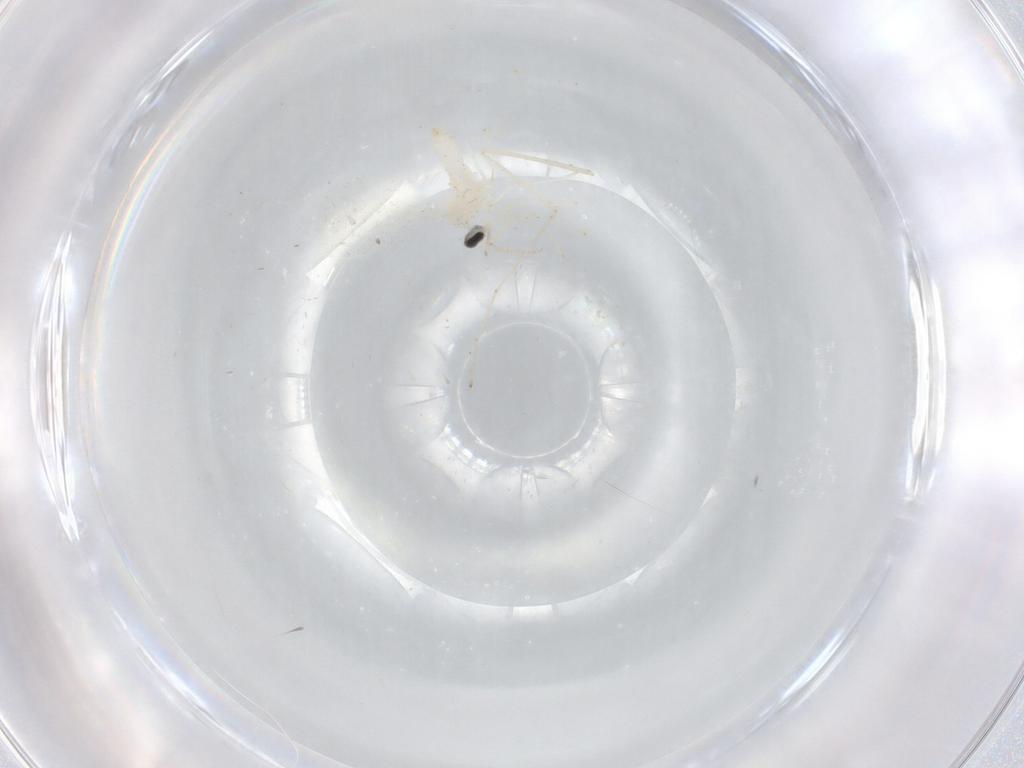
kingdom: Animalia
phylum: Arthropoda
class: Insecta
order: Diptera
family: Cecidomyiidae
